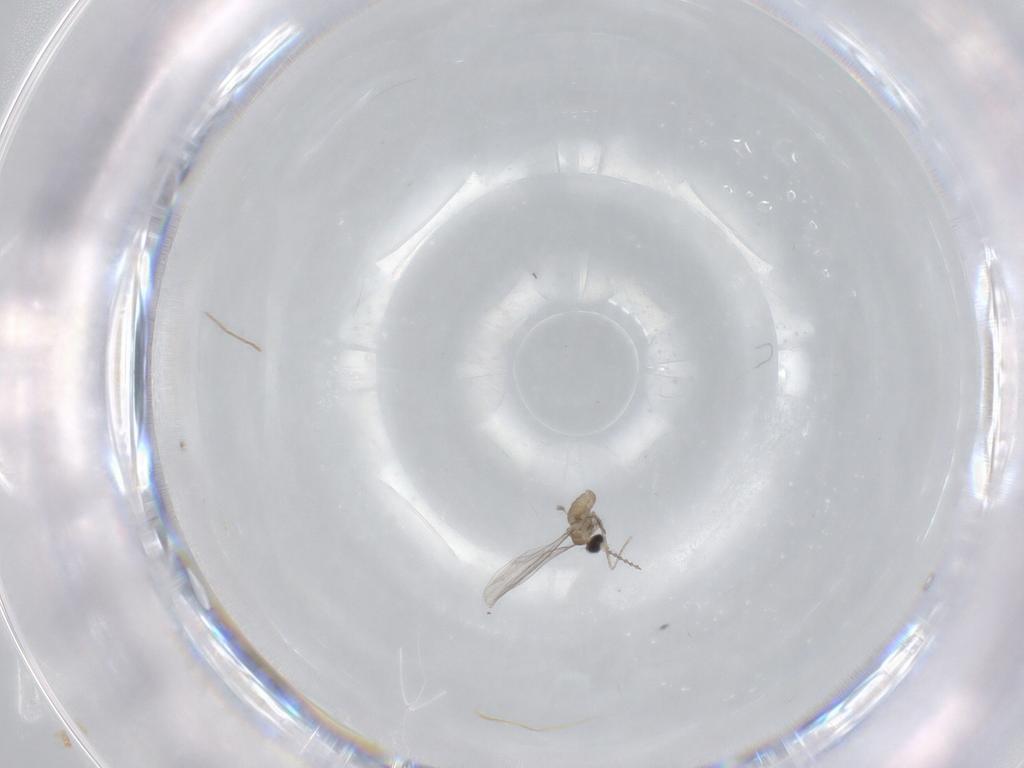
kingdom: Animalia
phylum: Arthropoda
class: Insecta
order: Diptera
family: Cecidomyiidae
